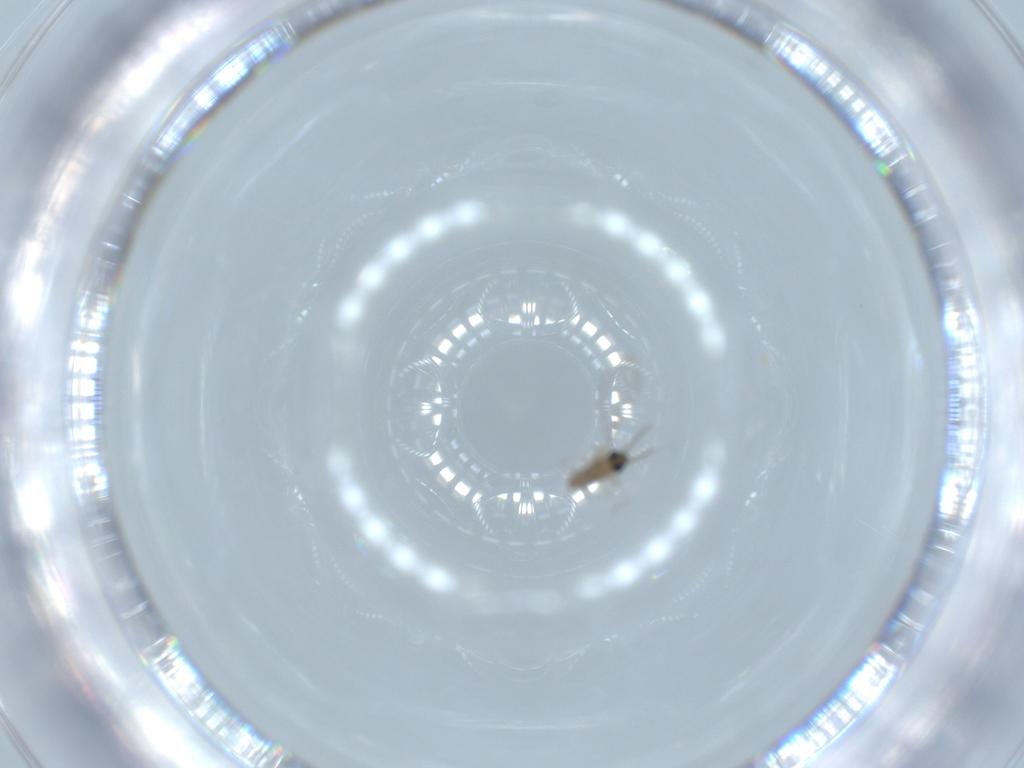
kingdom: Animalia
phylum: Arthropoda
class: Insecta
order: Diptera
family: Cecidomyiidae
